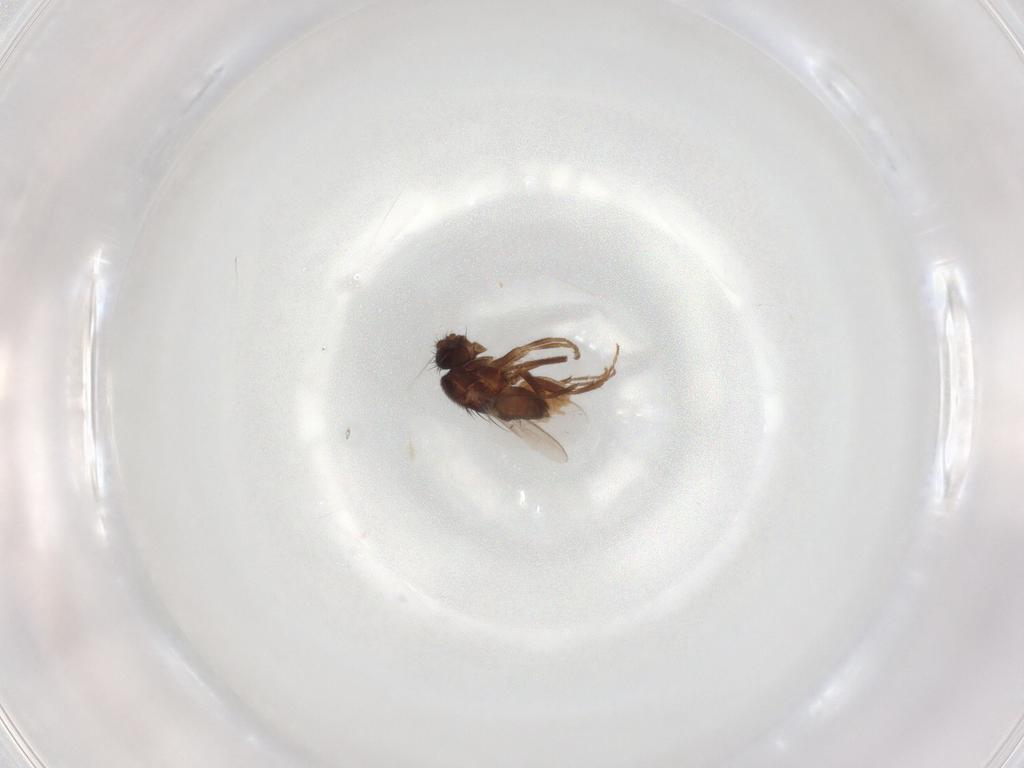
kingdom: Animalia
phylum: Arthropoda
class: Insecta
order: Diptera
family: Sphaeroceridae
